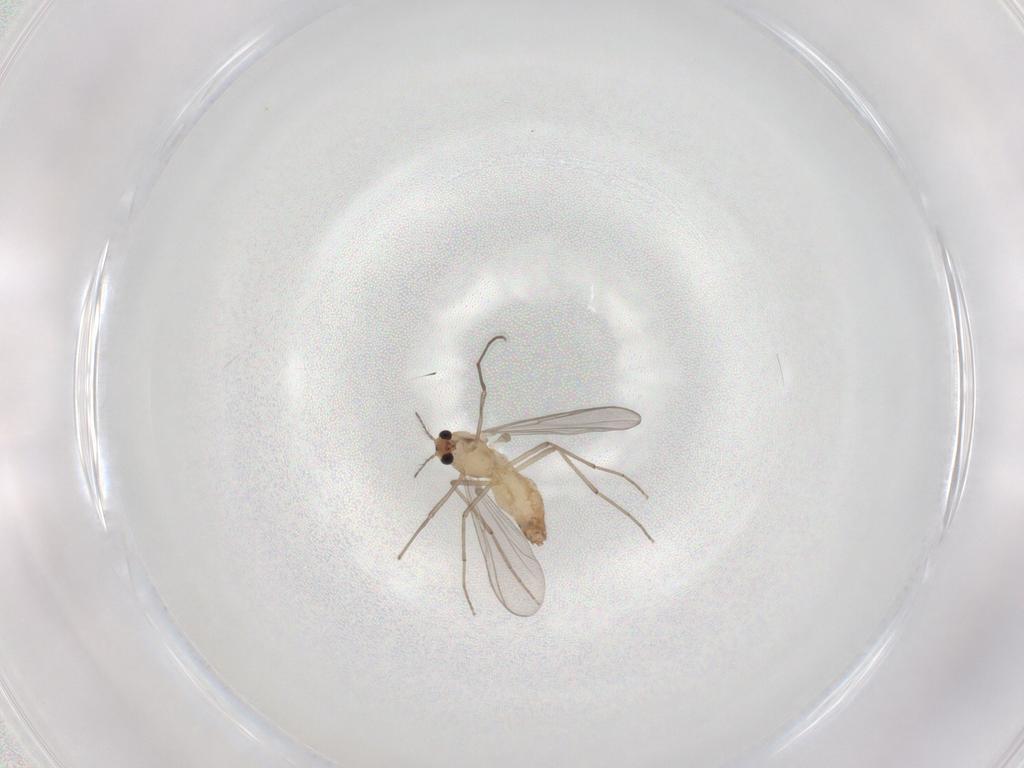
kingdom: Animalia
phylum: Arthropoda
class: Insecta
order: Diptera
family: Chironomidae
